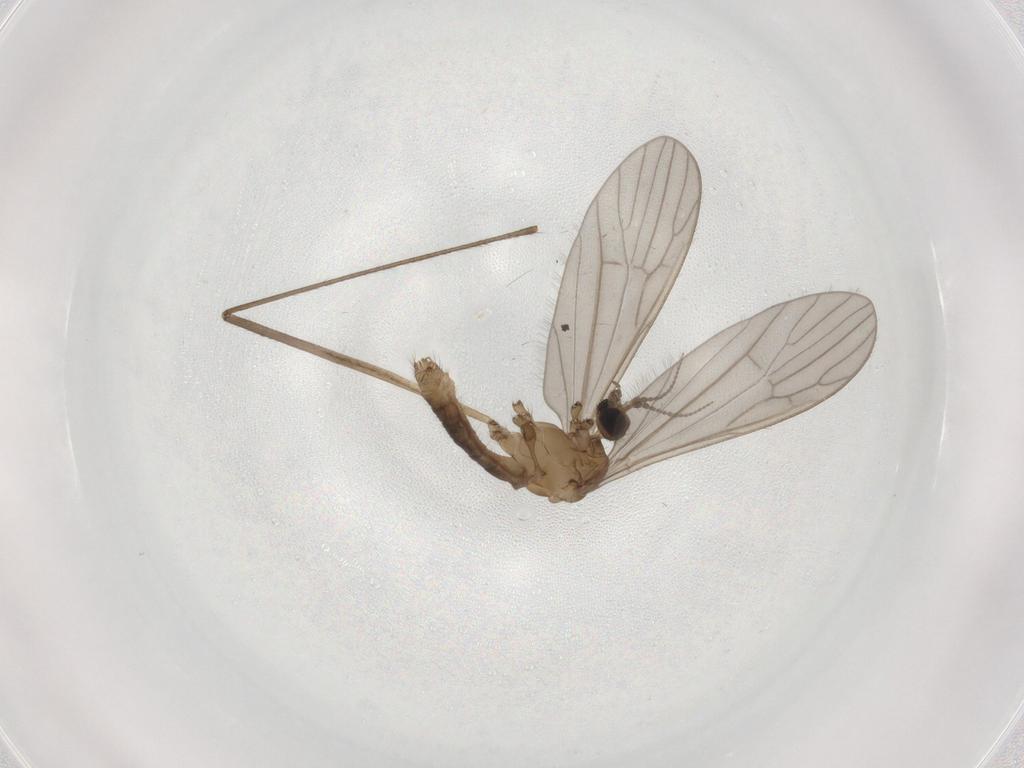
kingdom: Animalia
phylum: Arthropoda
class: Insecta
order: Diptera
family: Limoniidae
